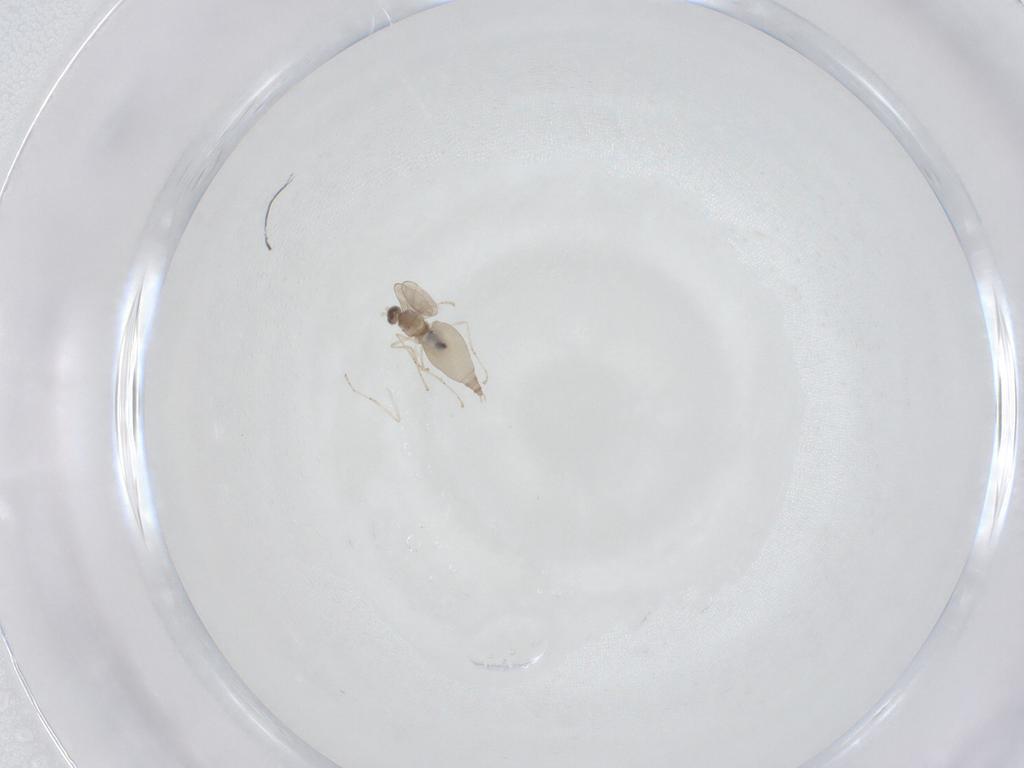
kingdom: Animalia
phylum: Arthropoda
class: Insecta
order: Diptera
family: Cecidomyiidae
